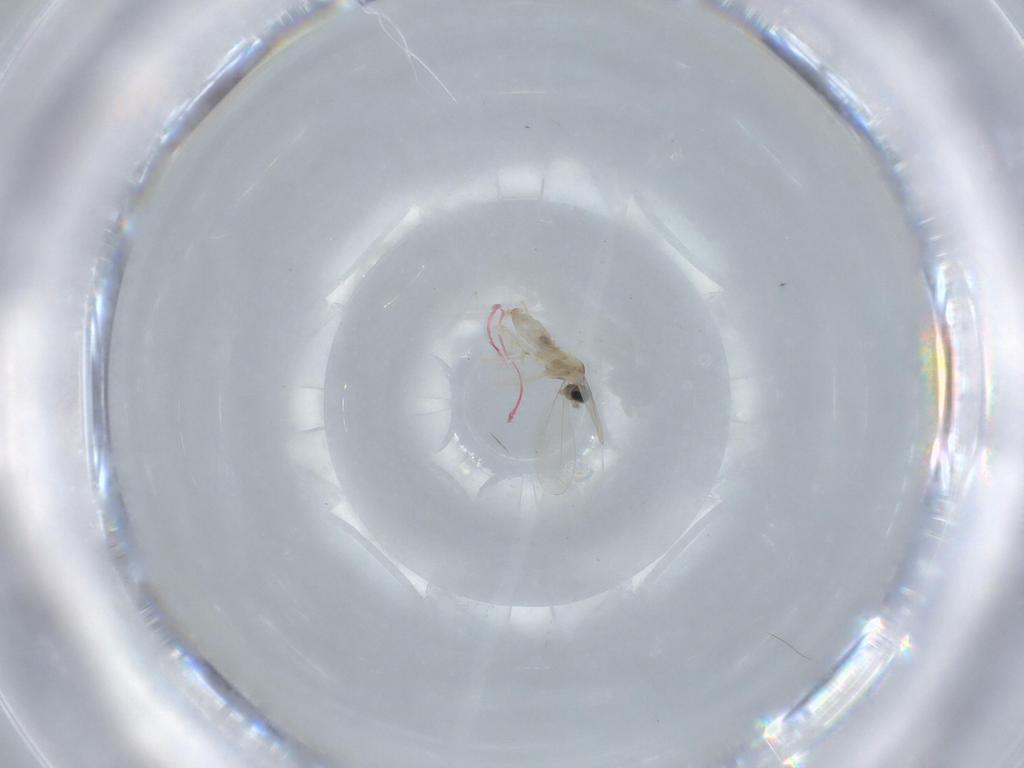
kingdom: Animalia
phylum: Arthropoda
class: Insecta
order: Diptera
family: Cecidomyiidae
